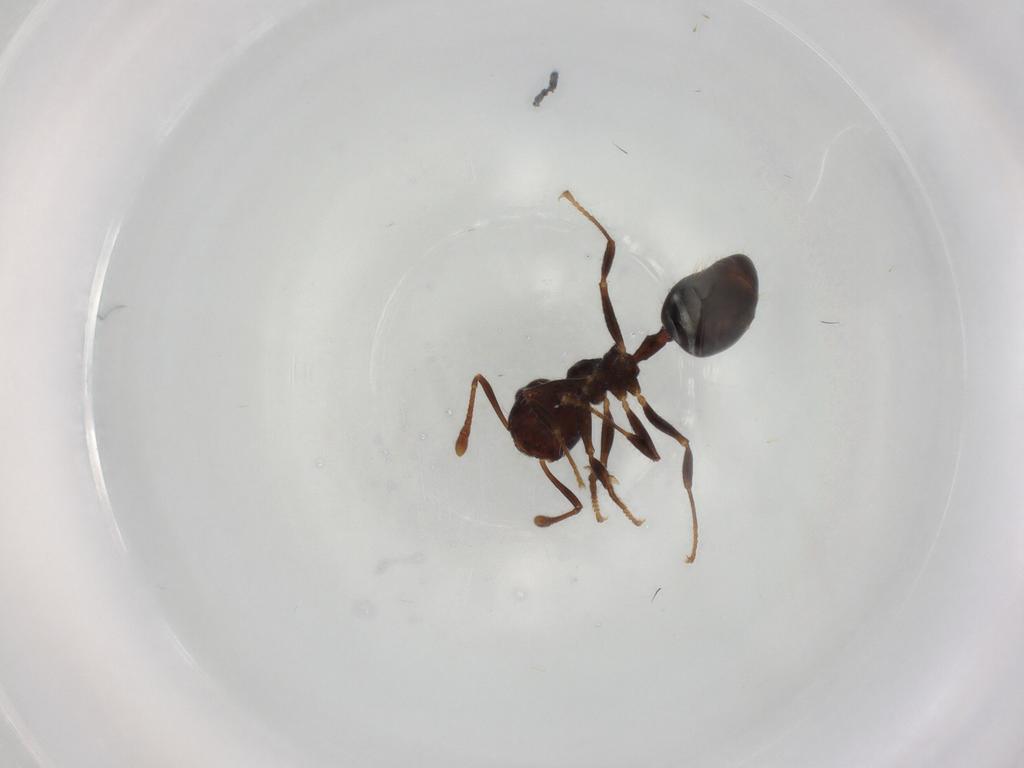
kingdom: Animalia
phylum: Arthropoda
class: Insecta
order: Hymenoptera
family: Formicidae
